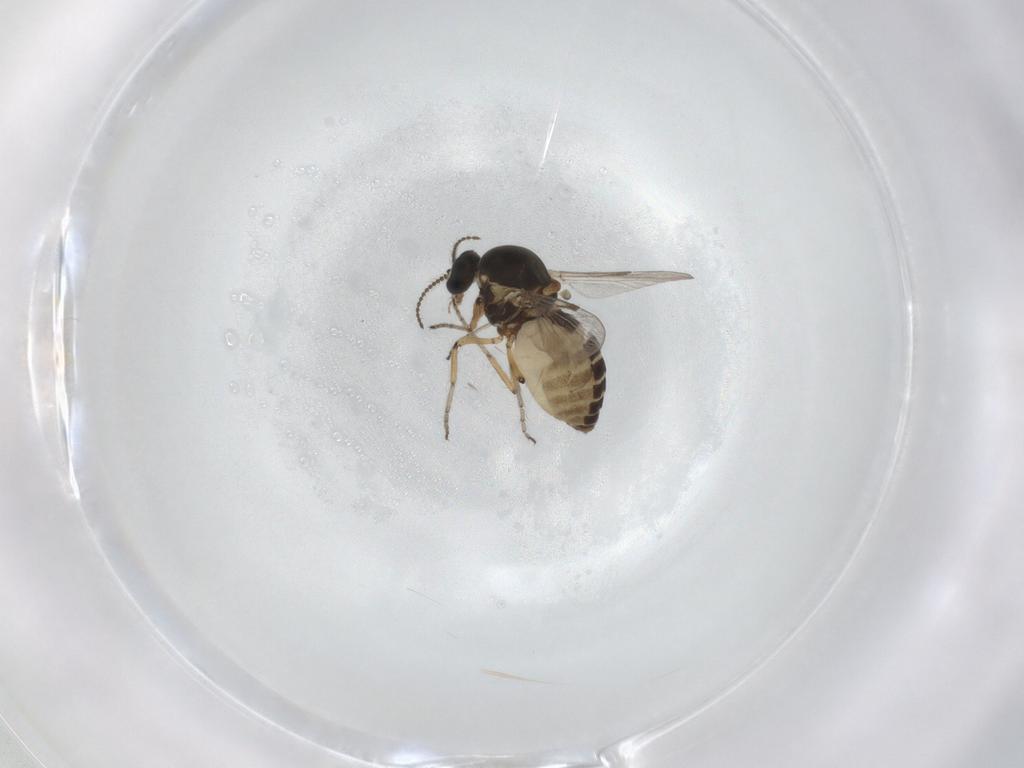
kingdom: Animalia
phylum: Arthropoda
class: Insecta
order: Diptera
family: Ceratopogonidae
